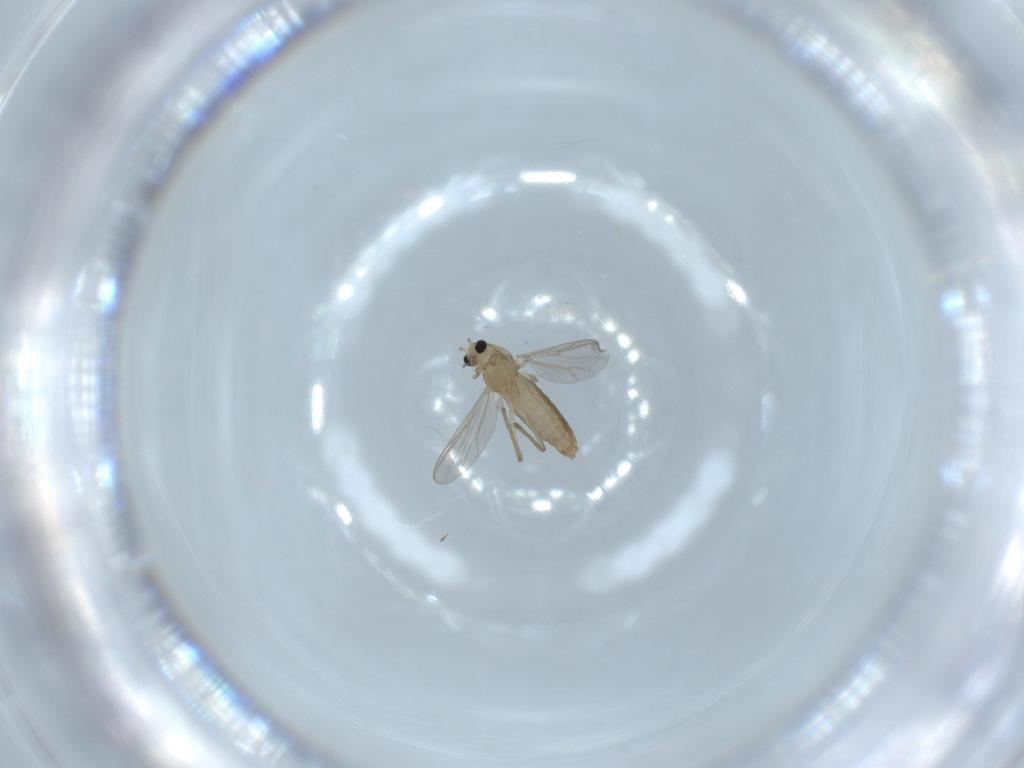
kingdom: Animalia
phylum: Arthropoda
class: Insecta
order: Diptera
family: Chironomidae
